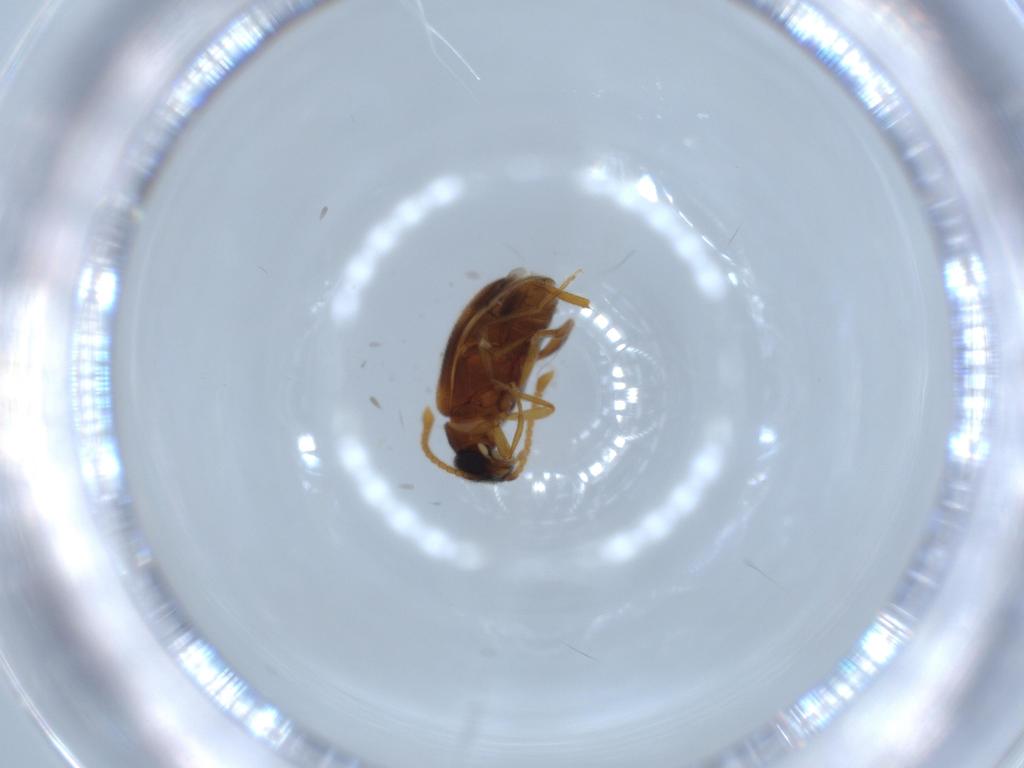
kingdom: Animalia
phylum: Arthropoda
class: Insecta
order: Coleoptera
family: Aderidae
